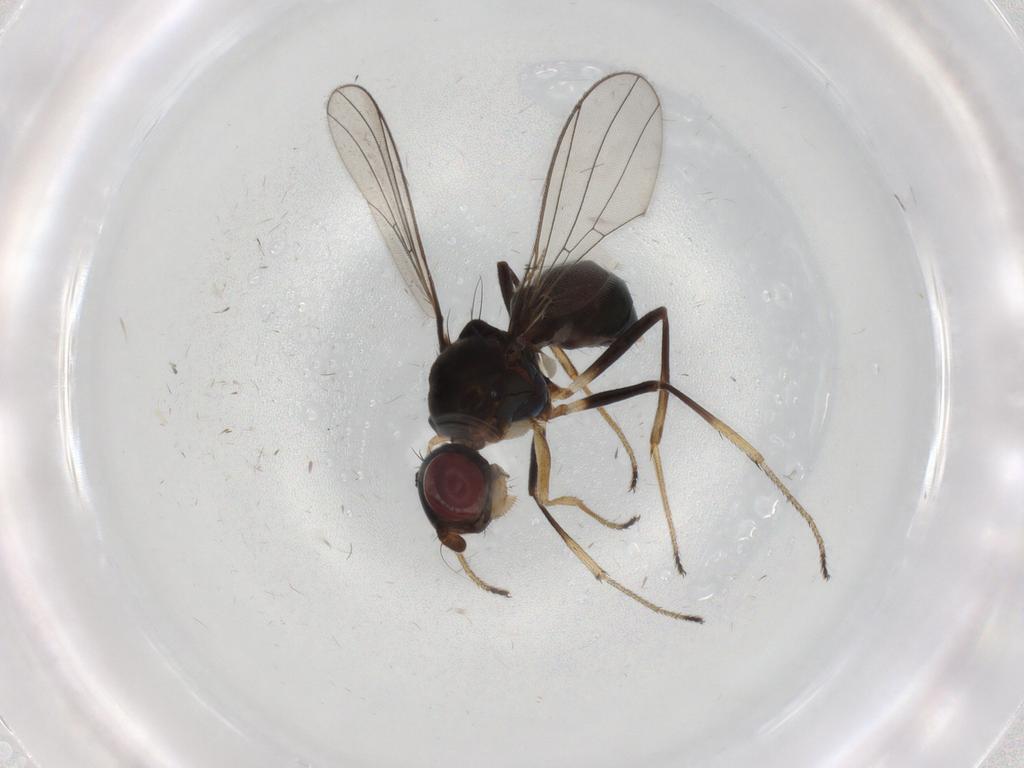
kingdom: Animalia
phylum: Arthropoda
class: Insecta
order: Diptera
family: Sepsidae
